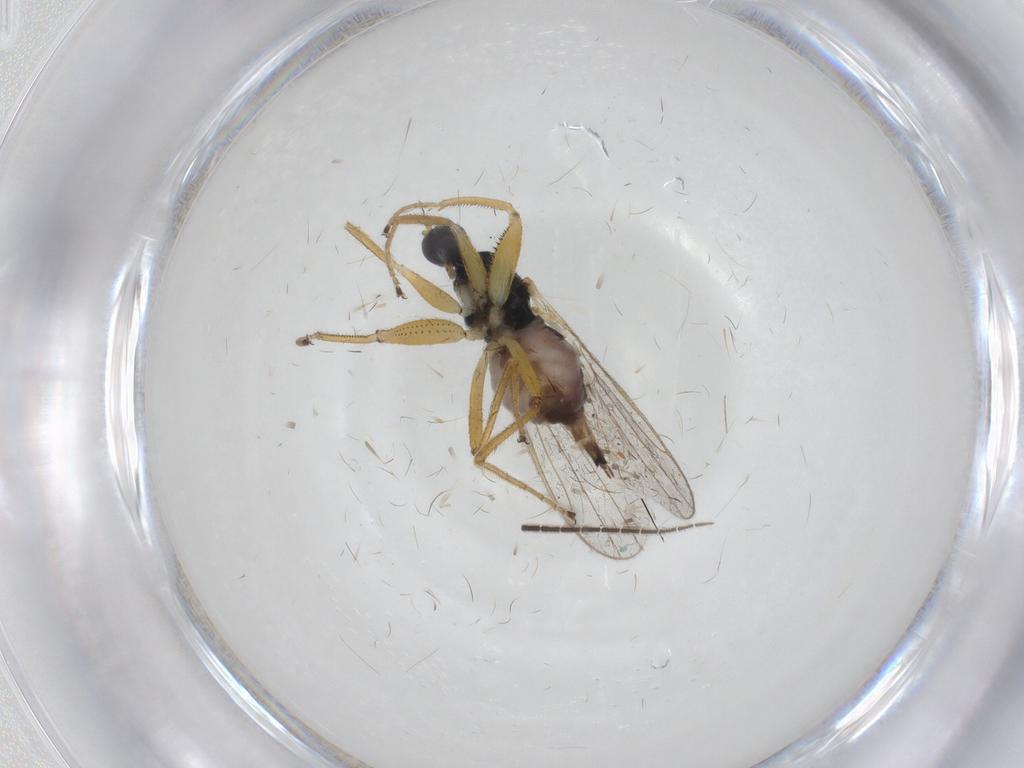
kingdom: Animalia
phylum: Arthropoda
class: Insecta
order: Diptera
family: Hybotidae
